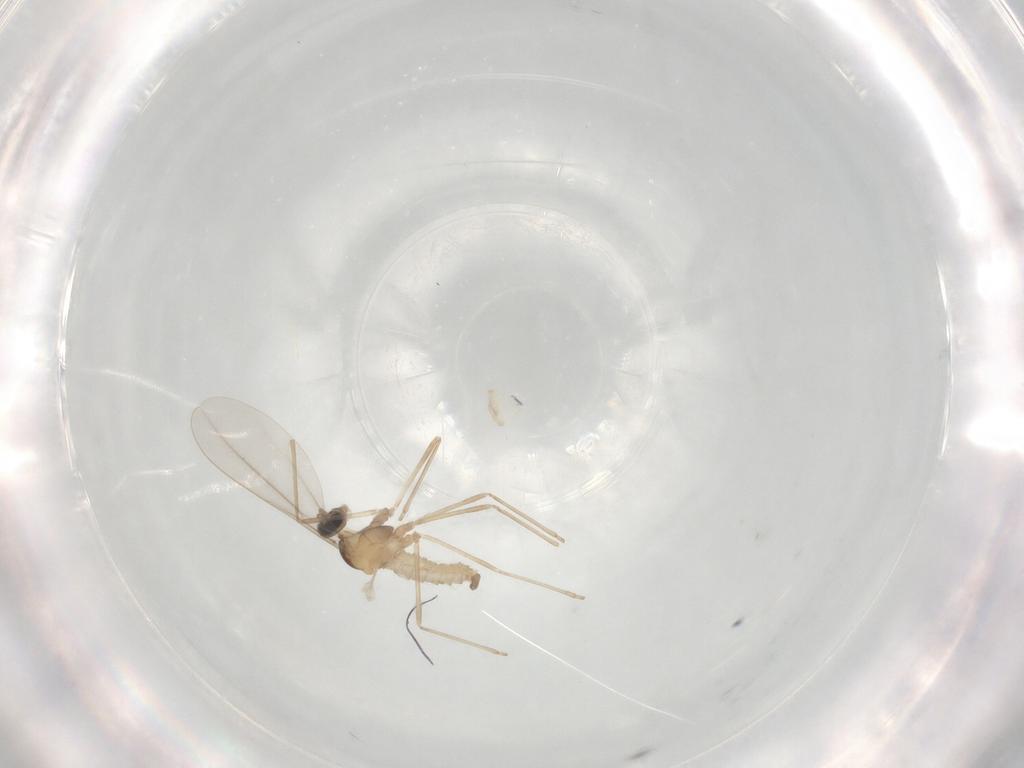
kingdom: Animalia
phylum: Arthropoda
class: Insecta
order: Diptera
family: Chironomidae
